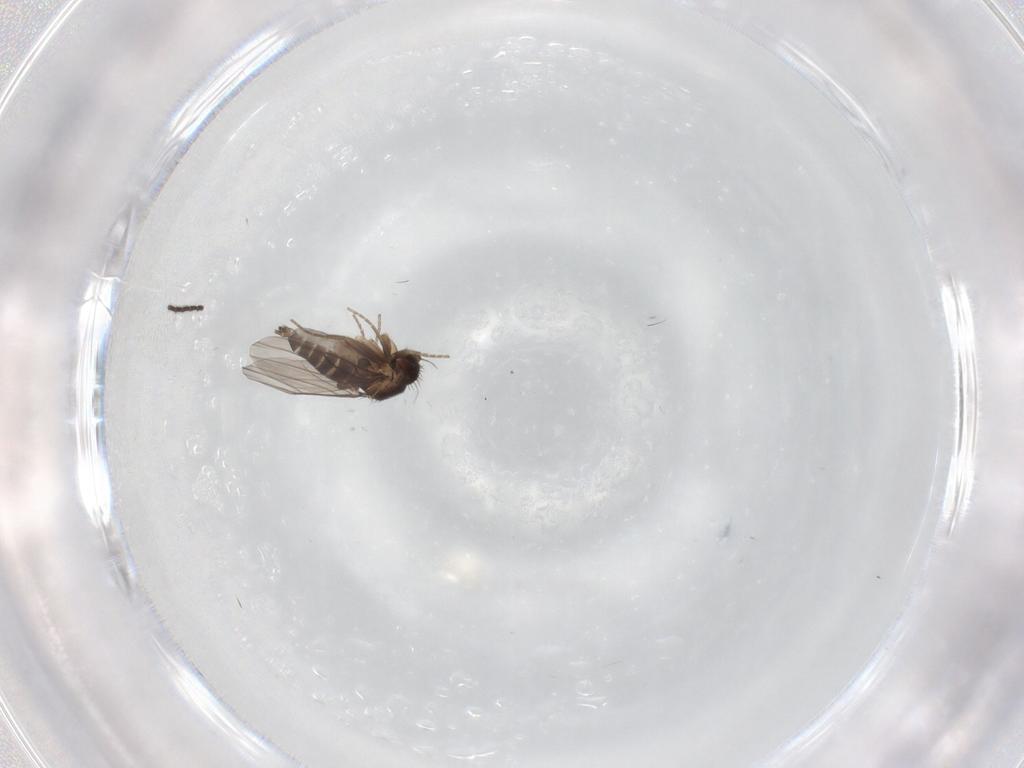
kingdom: Animalia
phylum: Arthropoda
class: Insecta
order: Diptera
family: Phoridae
